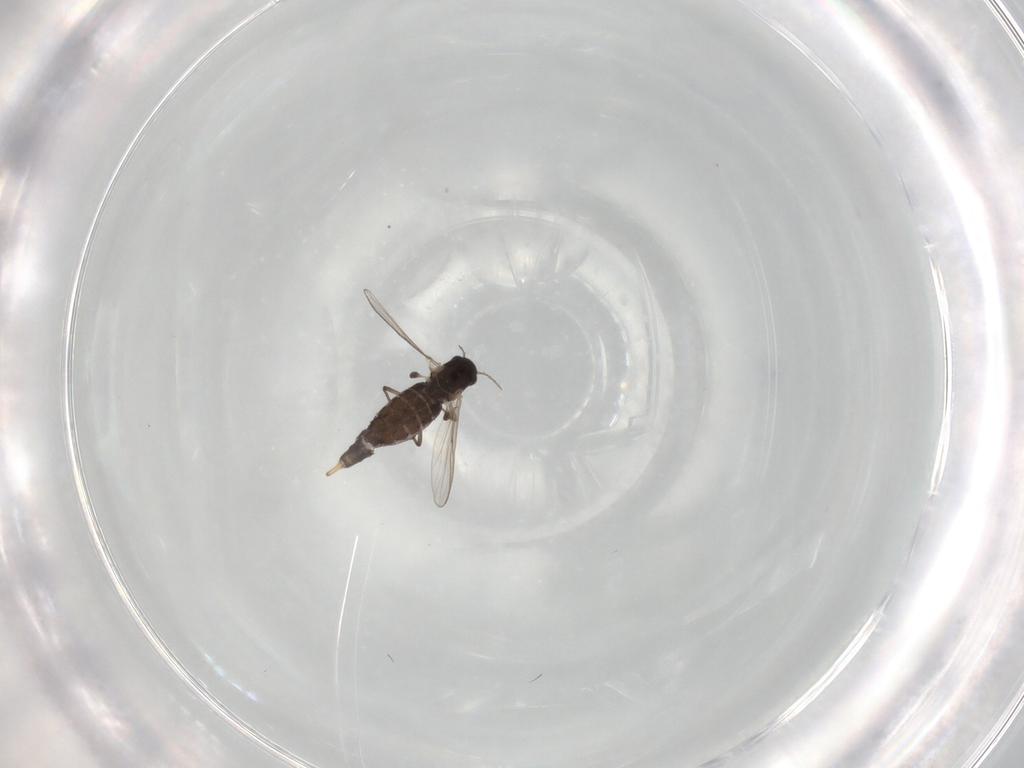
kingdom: Animalia
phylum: Arthropoda
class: Insecta
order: Diptera
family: Chironomidae
